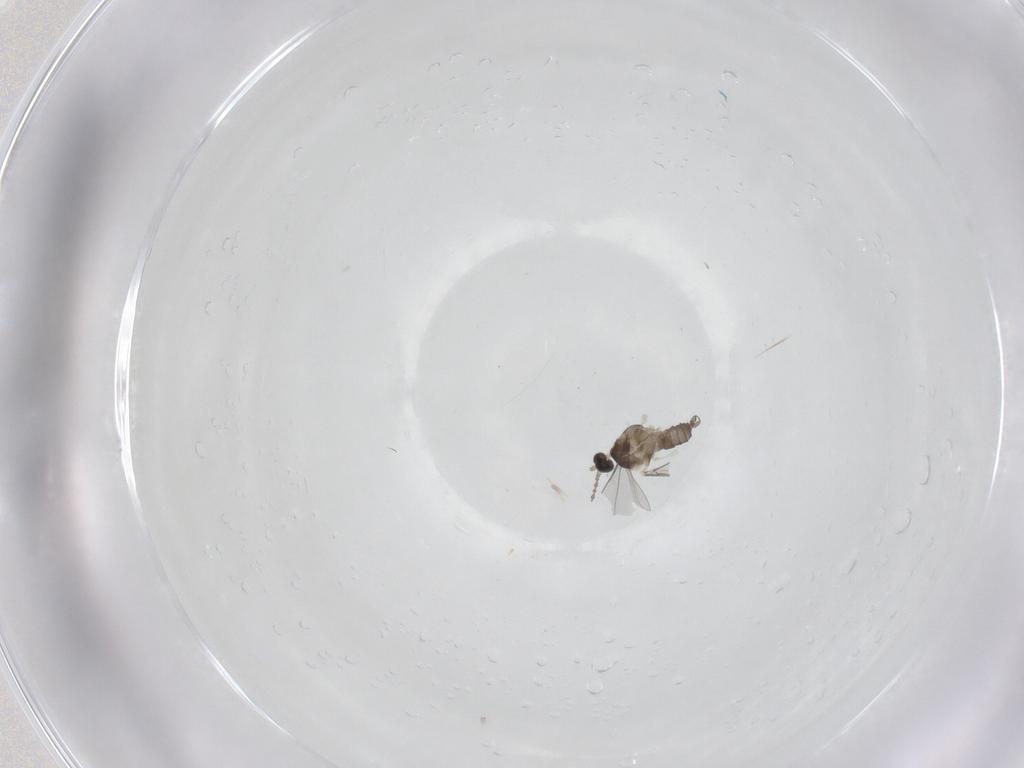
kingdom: Animalia
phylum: Arthropoda
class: Insecta
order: Diptera
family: Cecidomyiidae
